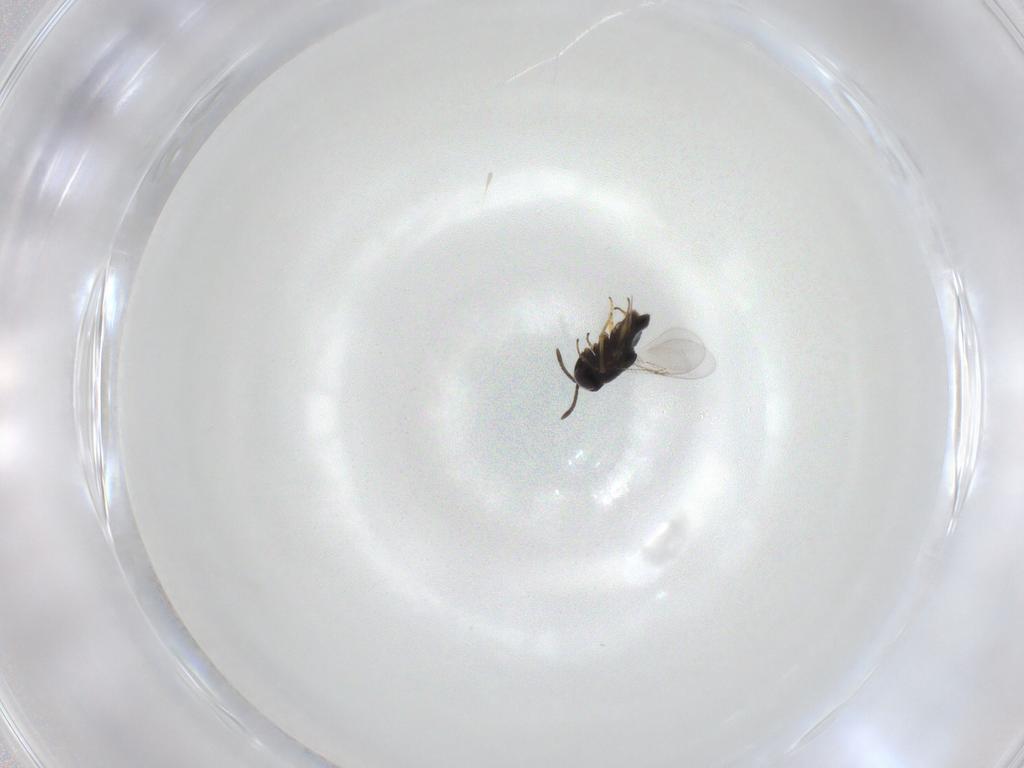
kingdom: Animalia
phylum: Arthropoda
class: Insecta
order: Hymenoptera
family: Encyrtidae
